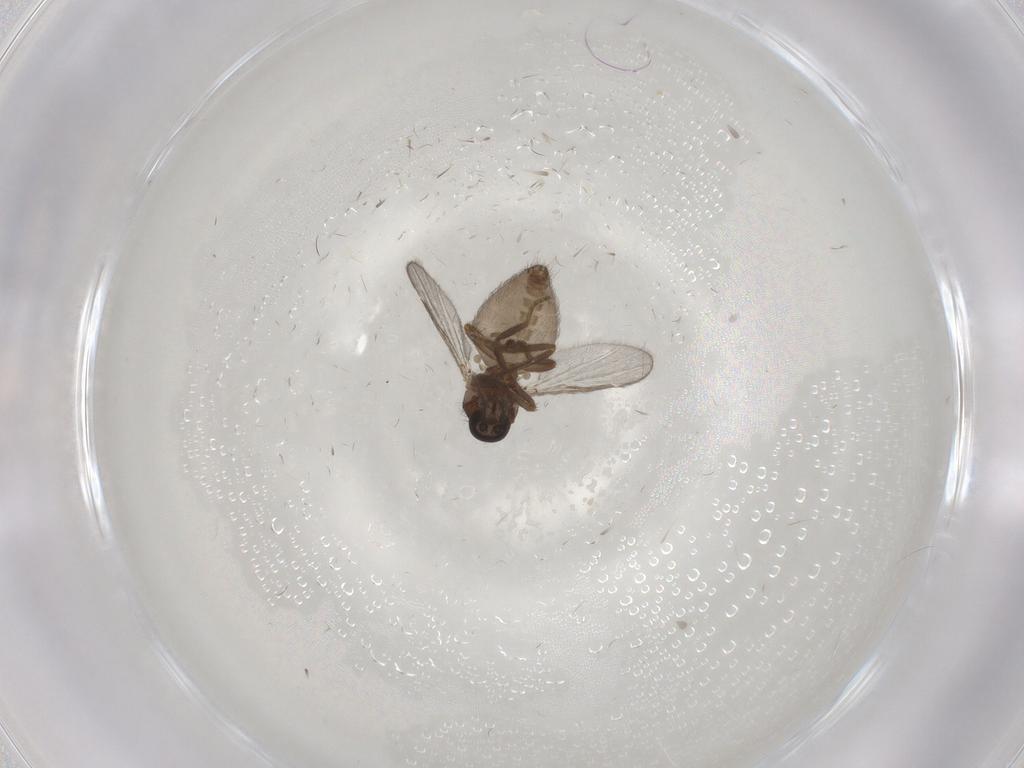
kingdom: Animalia
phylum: Arthropoda
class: Insecta
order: Diptera
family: Ceratopogonidae
